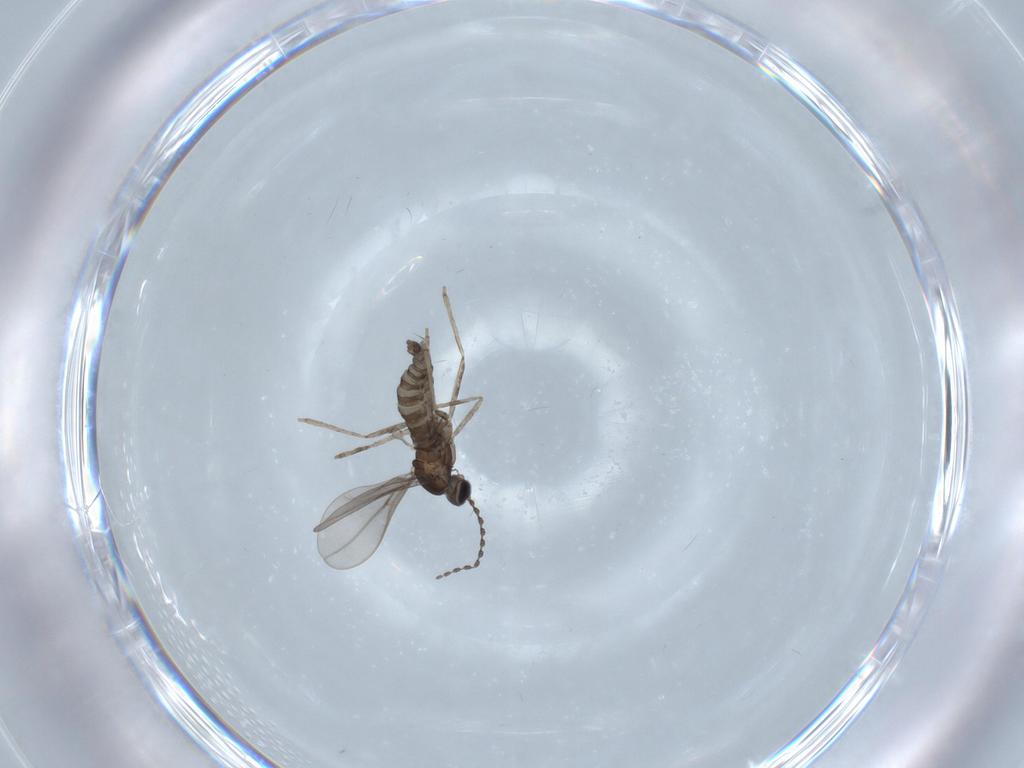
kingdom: Animalia
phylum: Arthropoda
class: Insecta
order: Diptera
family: Cecidomyiidae
